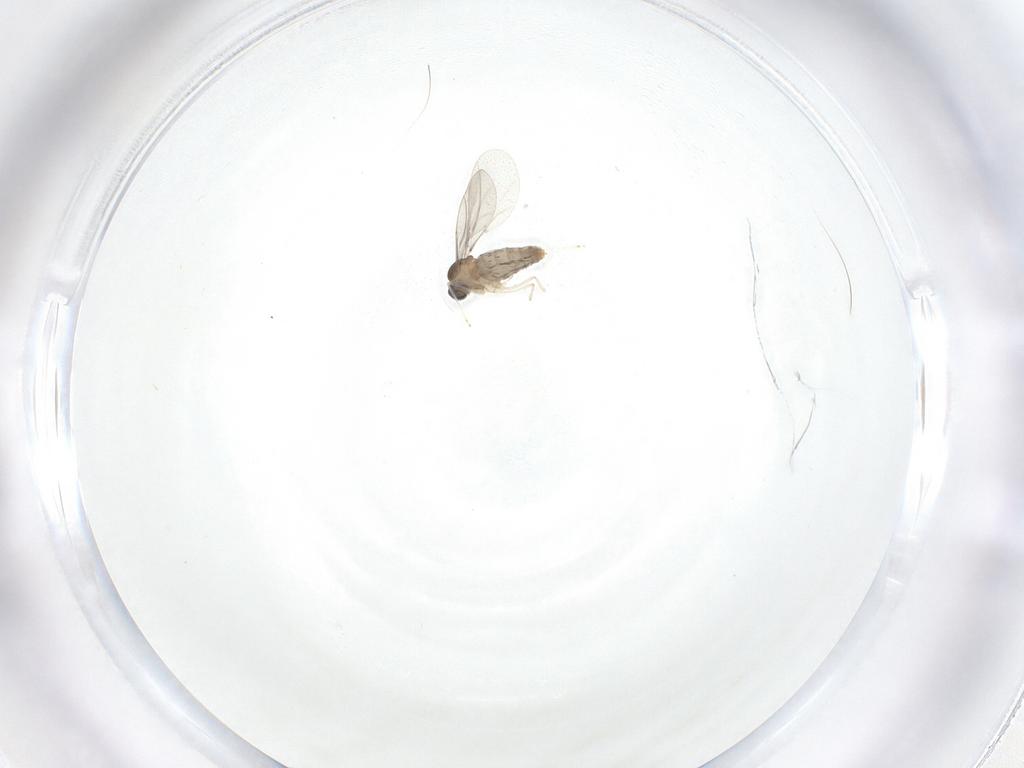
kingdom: Animalia
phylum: Arthropoda
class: Insecta
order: Diptera
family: Cecidomyiidae
